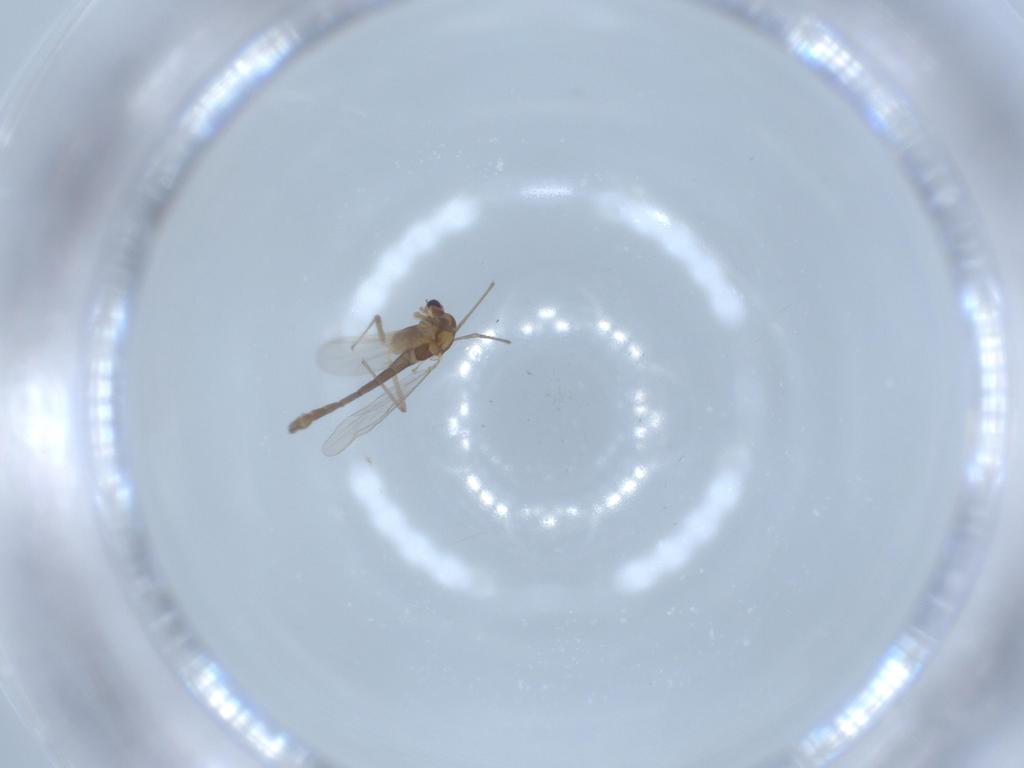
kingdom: Animalia
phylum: Arthropoda
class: Insecta
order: Diptera
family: Chironomidae
